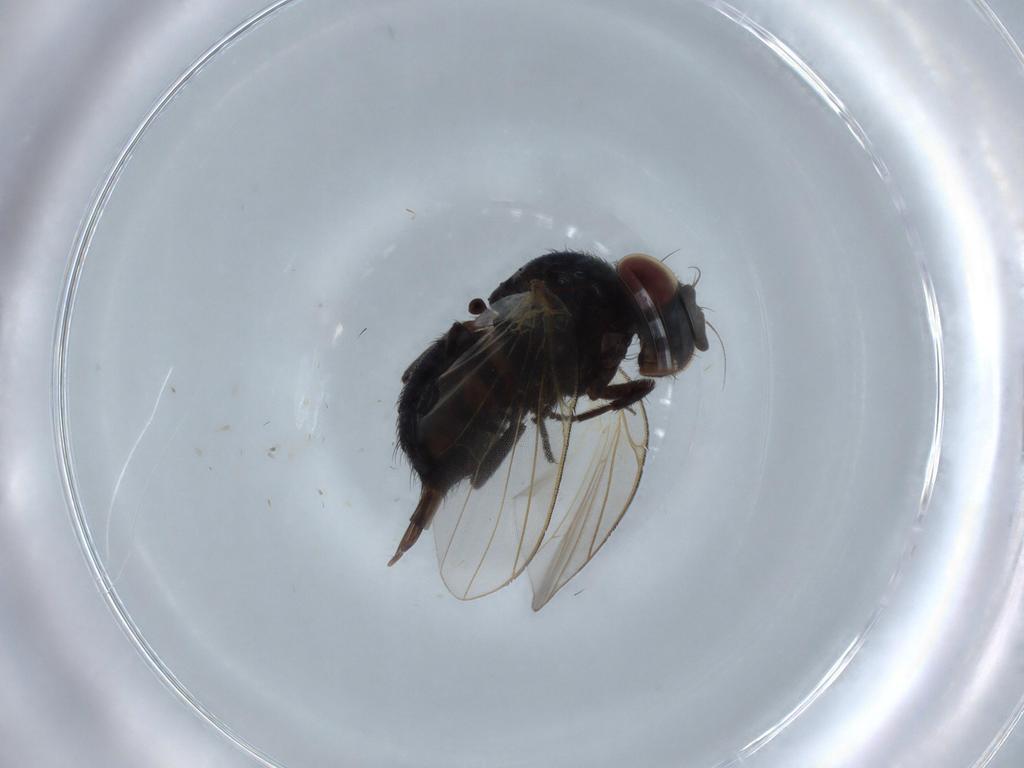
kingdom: Animalia
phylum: Arthropoda
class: Insecta
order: Diptera
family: Lonchaeidae
